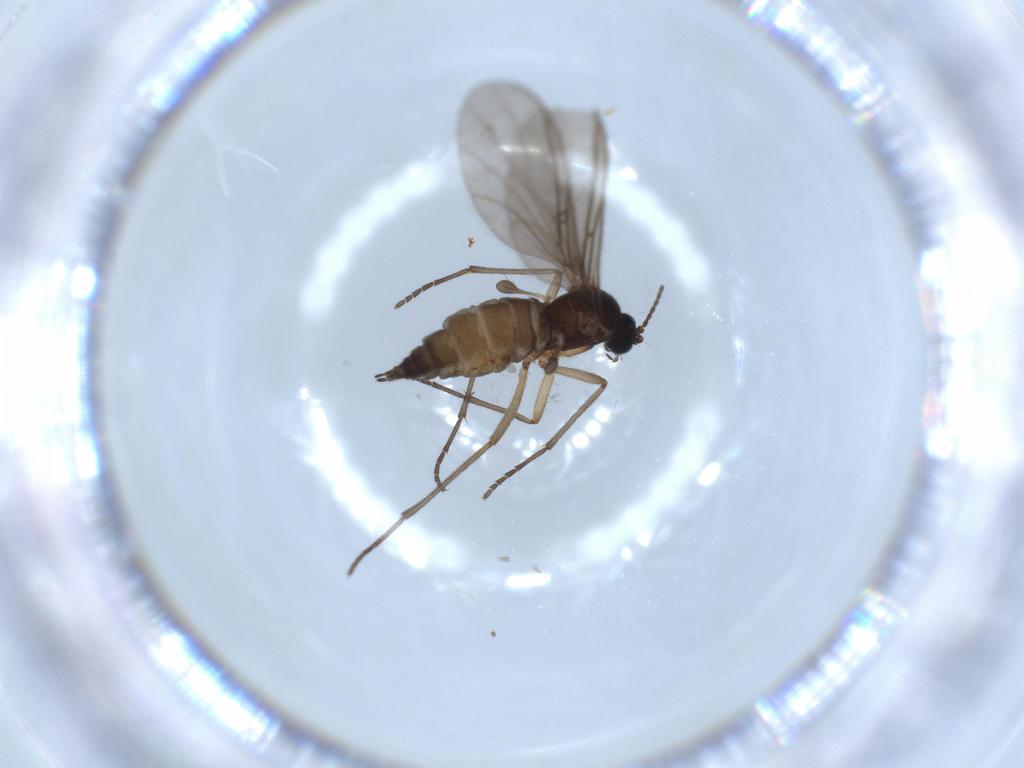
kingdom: Animalia
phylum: Arthropoda
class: Insecta
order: Diptera
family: Sciaridae
